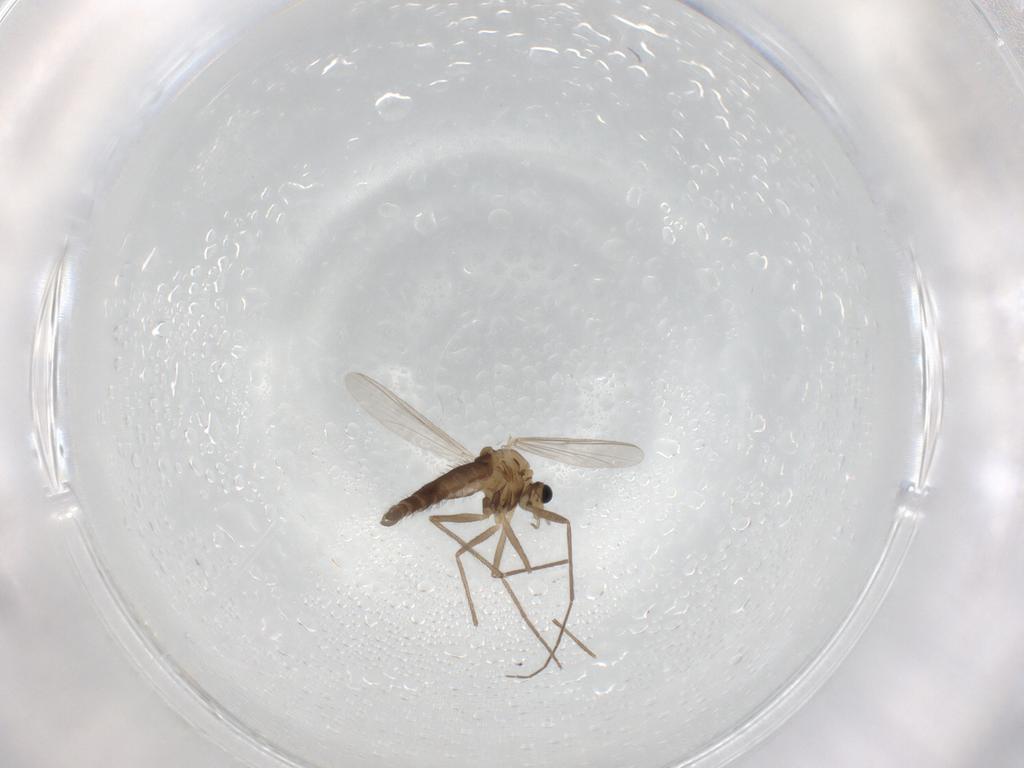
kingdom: Animalia
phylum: Arthropoda
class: Insecta
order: Diptera
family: Chironomidae
